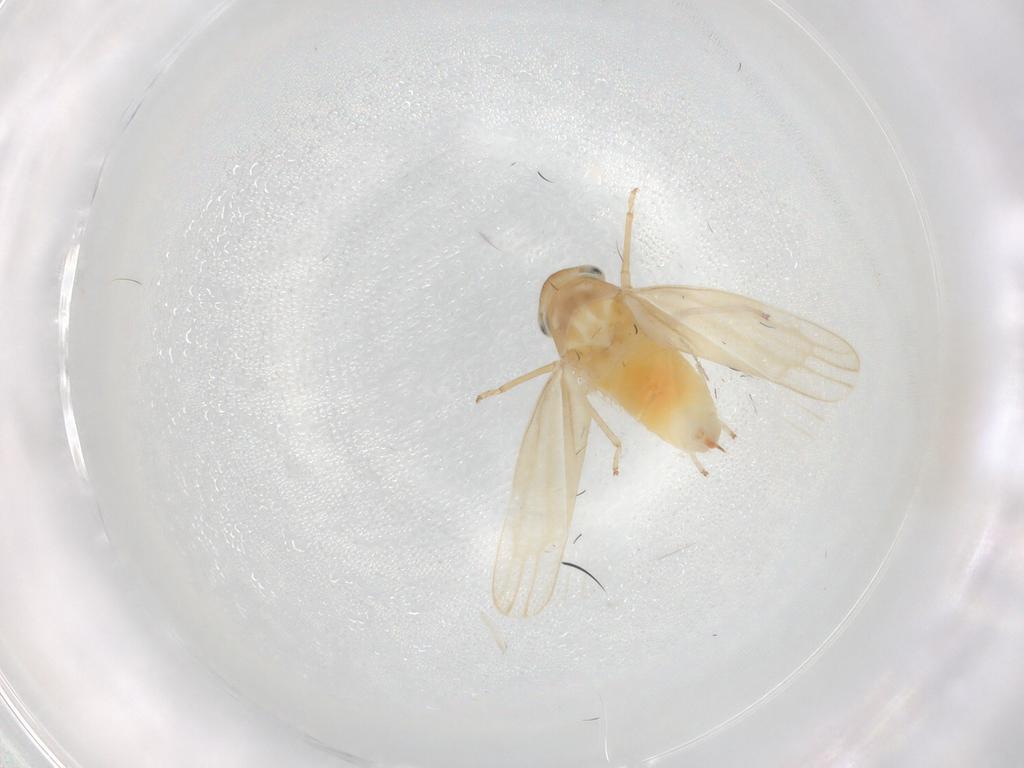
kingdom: Animalia
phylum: Arthropoda
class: Insecta
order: Hemiptera
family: Cicadellidae
